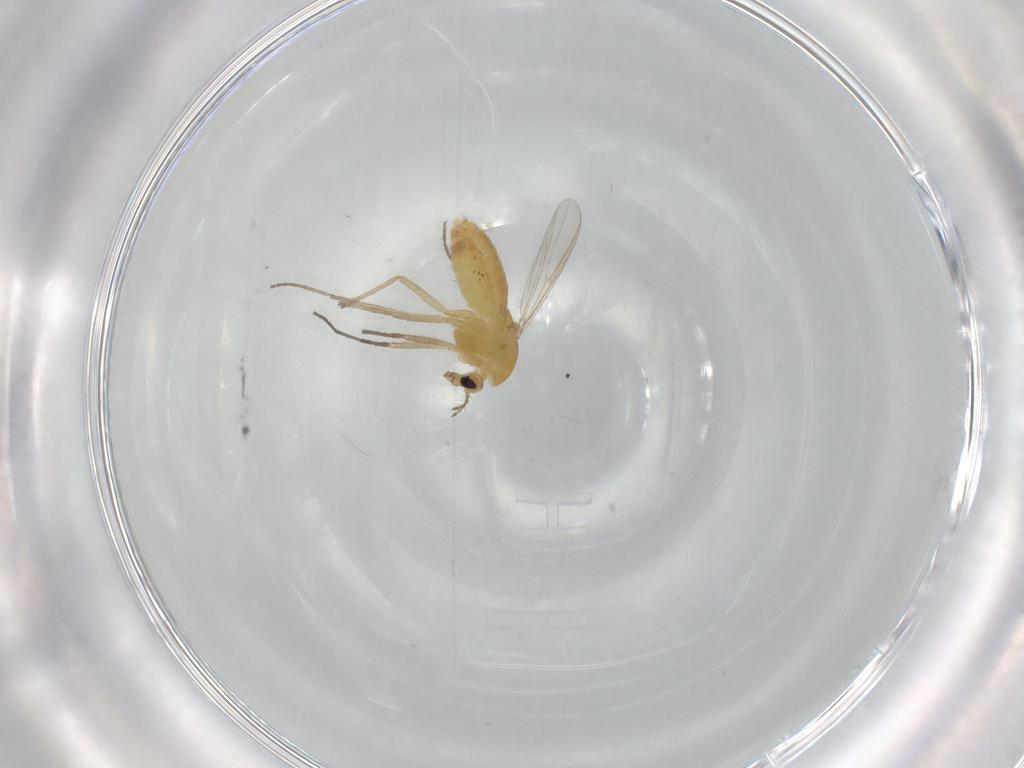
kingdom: Animalia
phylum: Arthropoda
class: Insecta
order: Diptera
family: Chironomidae
